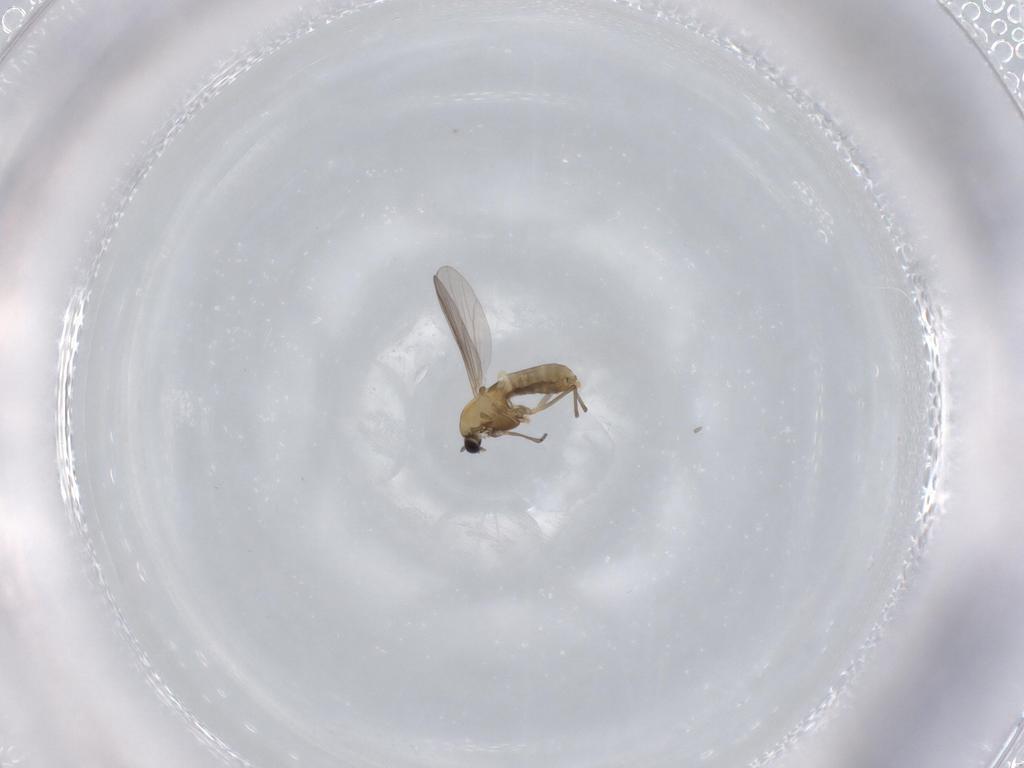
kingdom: Animalia
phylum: Arthropoda
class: Insecta
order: Diptera
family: Chironomidae
